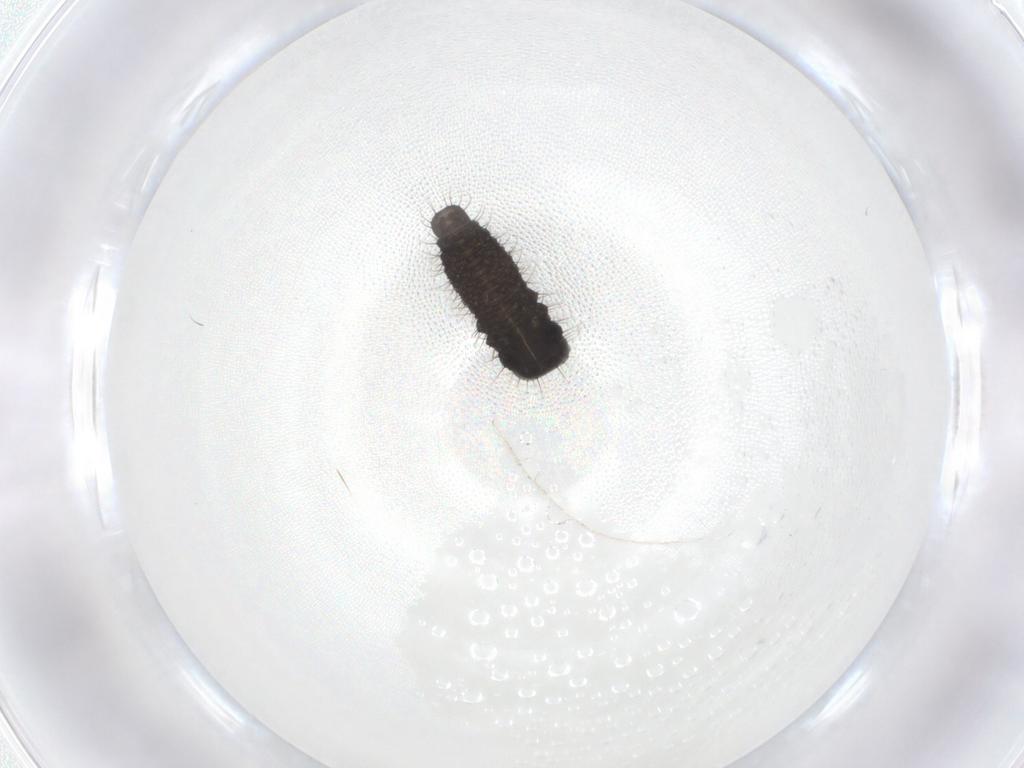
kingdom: Animalia
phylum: Arthropoda
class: Insecta
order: Coleoptera
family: Chrysomelidae
